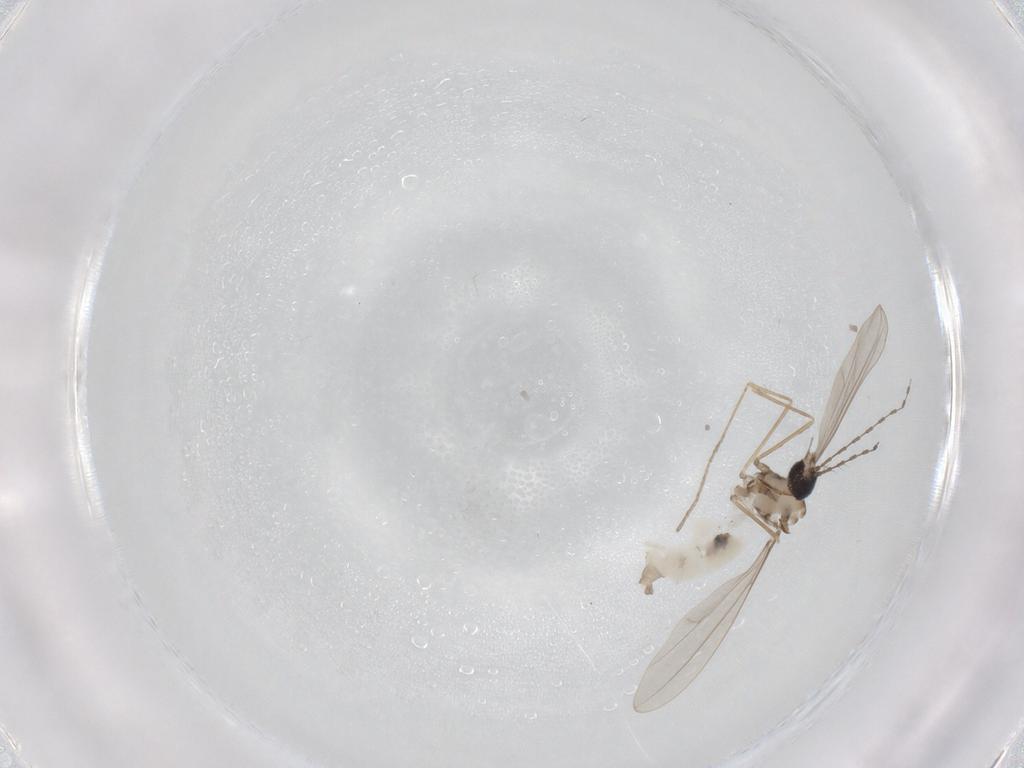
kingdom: Animalia
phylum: Arthropoda
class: Insecta
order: Diptera
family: Cecidomyiidae
